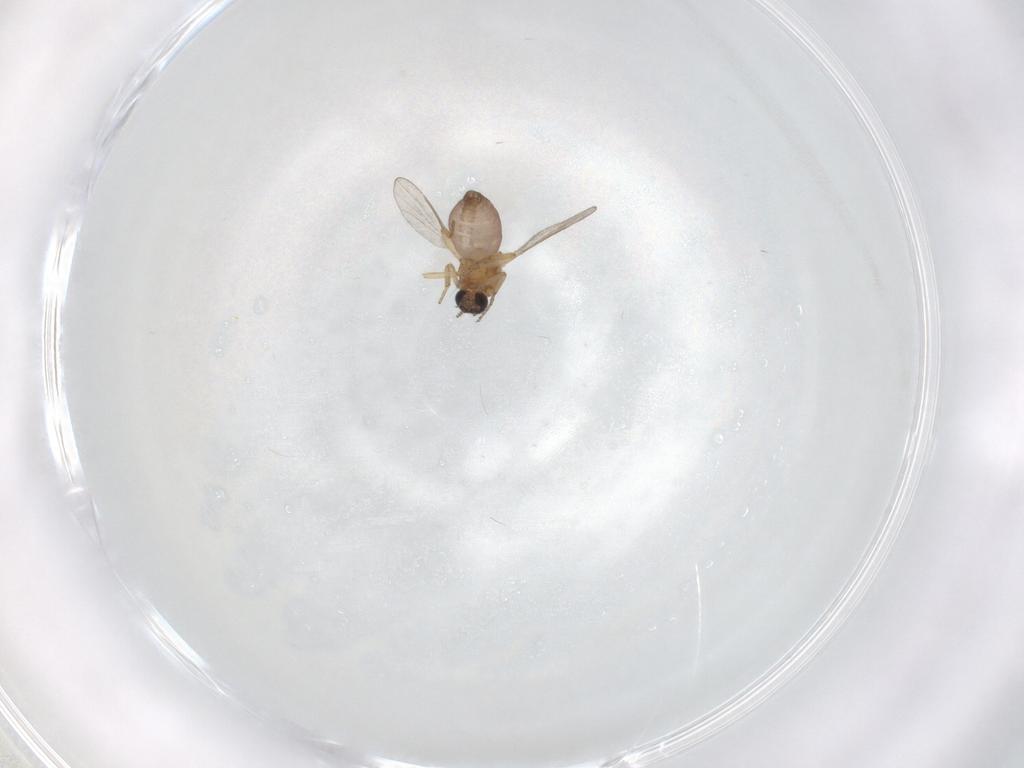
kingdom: Animalia
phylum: Arthropoda
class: Insecta
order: Diptera
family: Ceratopogonidae
